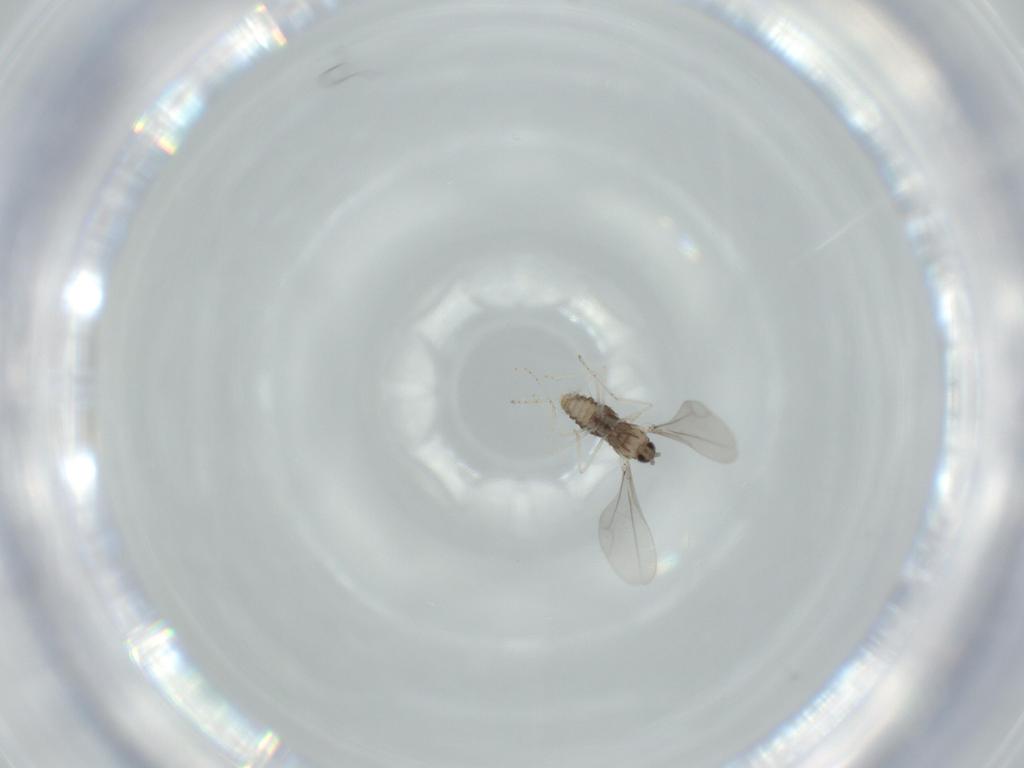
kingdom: Animalia
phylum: Arthropoda
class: Insecta
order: Diptera
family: Cecidomyiidae
